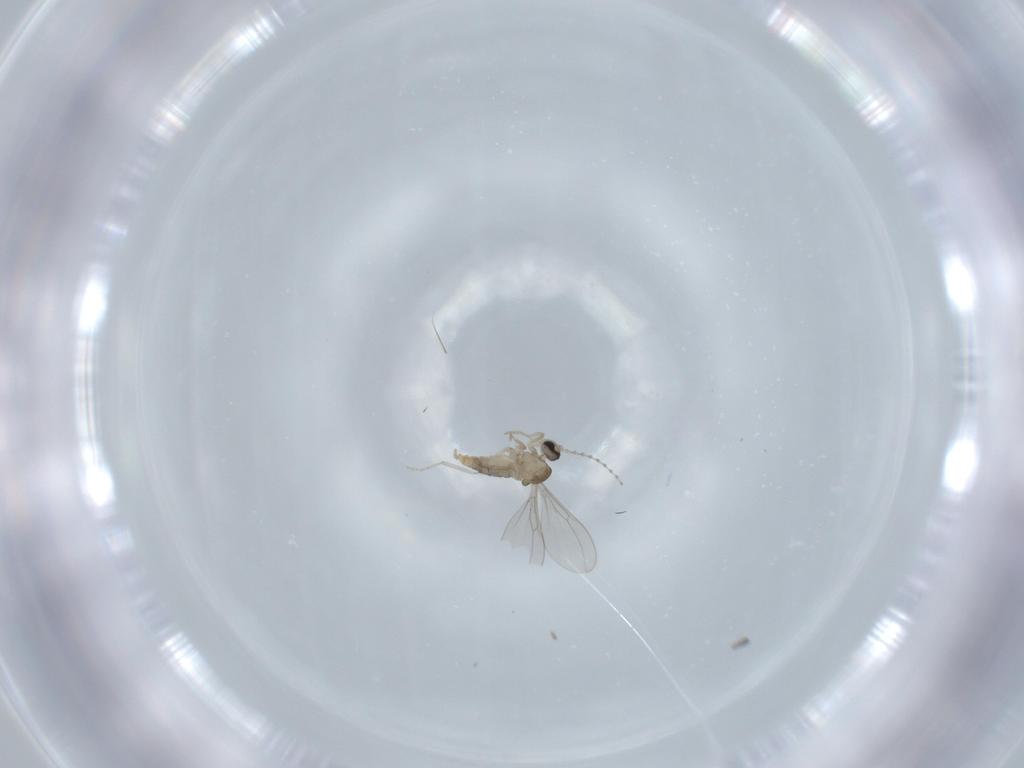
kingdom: Animalia
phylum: Arthropoda
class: Insecta
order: Diptera
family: Cecidomyiidae
